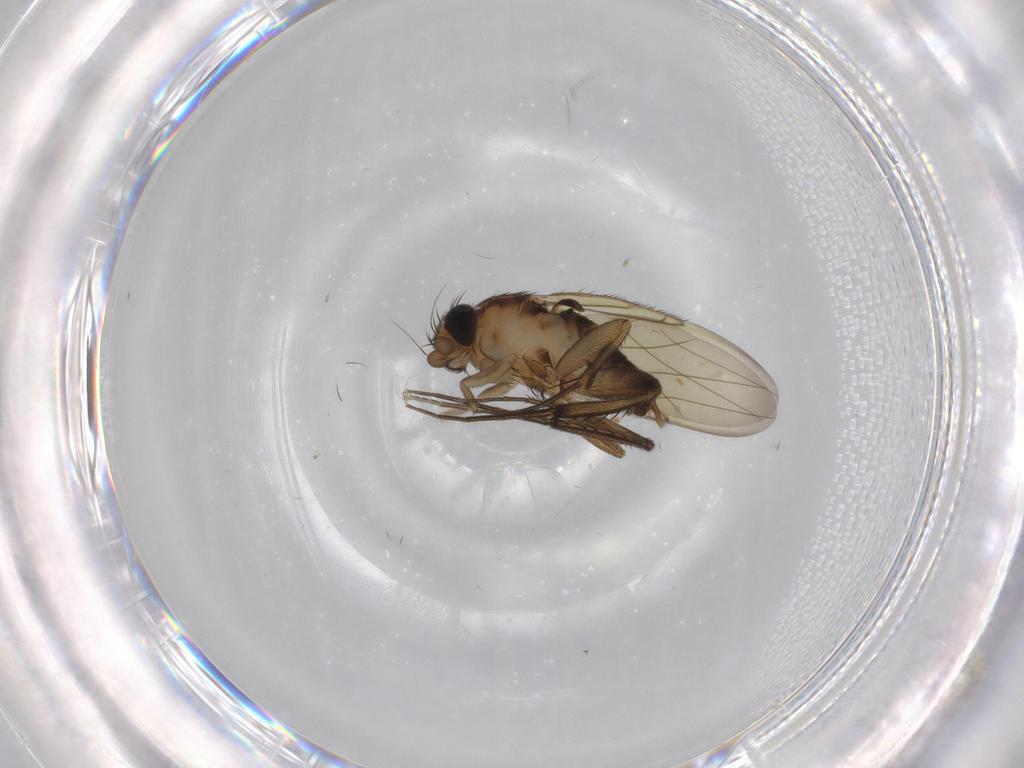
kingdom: Animalia
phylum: Arthropoda
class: Insecta
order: Diptera
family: Phoridae
